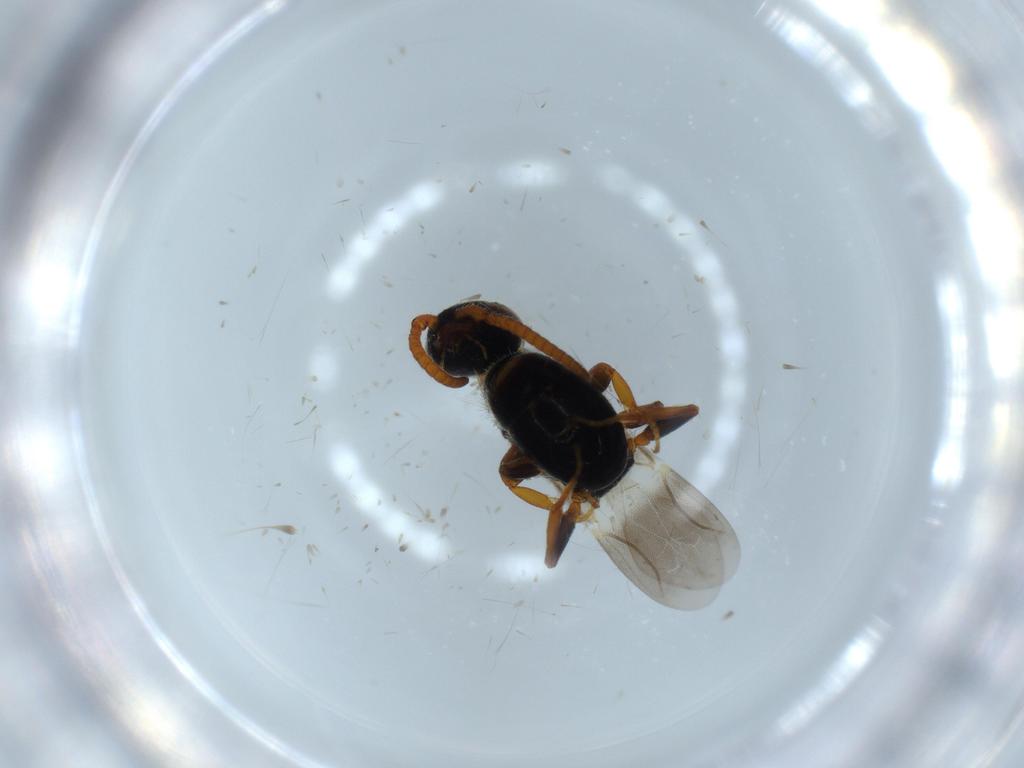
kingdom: Animalia
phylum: Arthropoda
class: Insecta
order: Hymenoptera
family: Bethylidae
